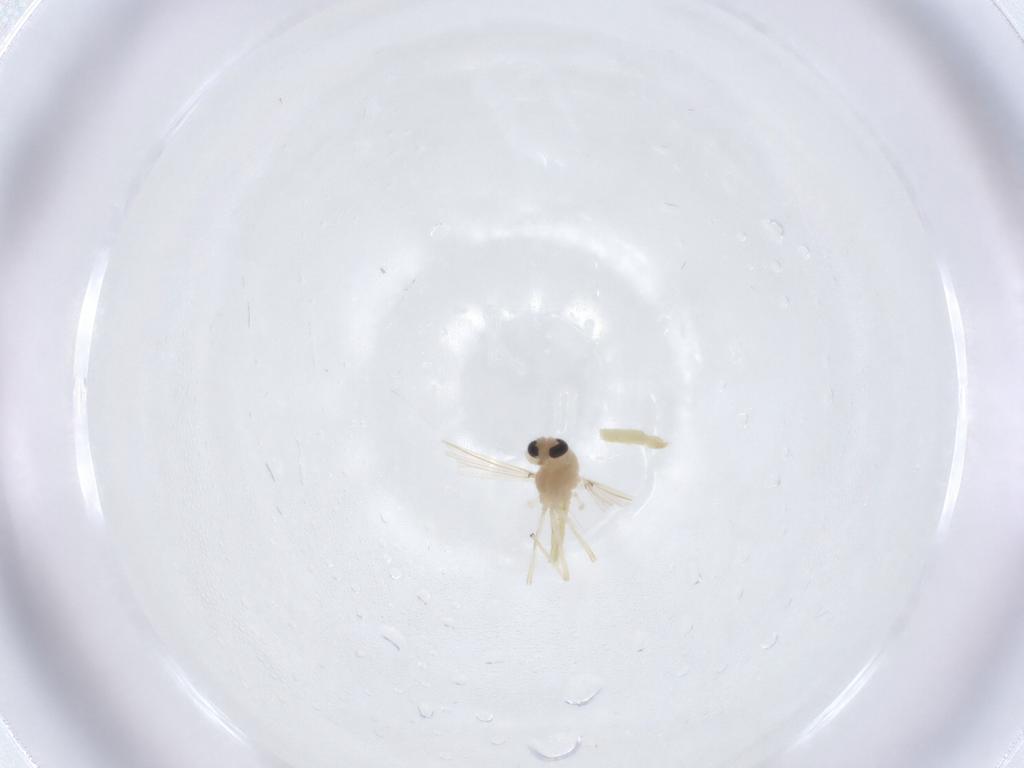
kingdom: Animalia
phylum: Arthropoda
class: Insecta
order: Diptera
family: Chironomidae
